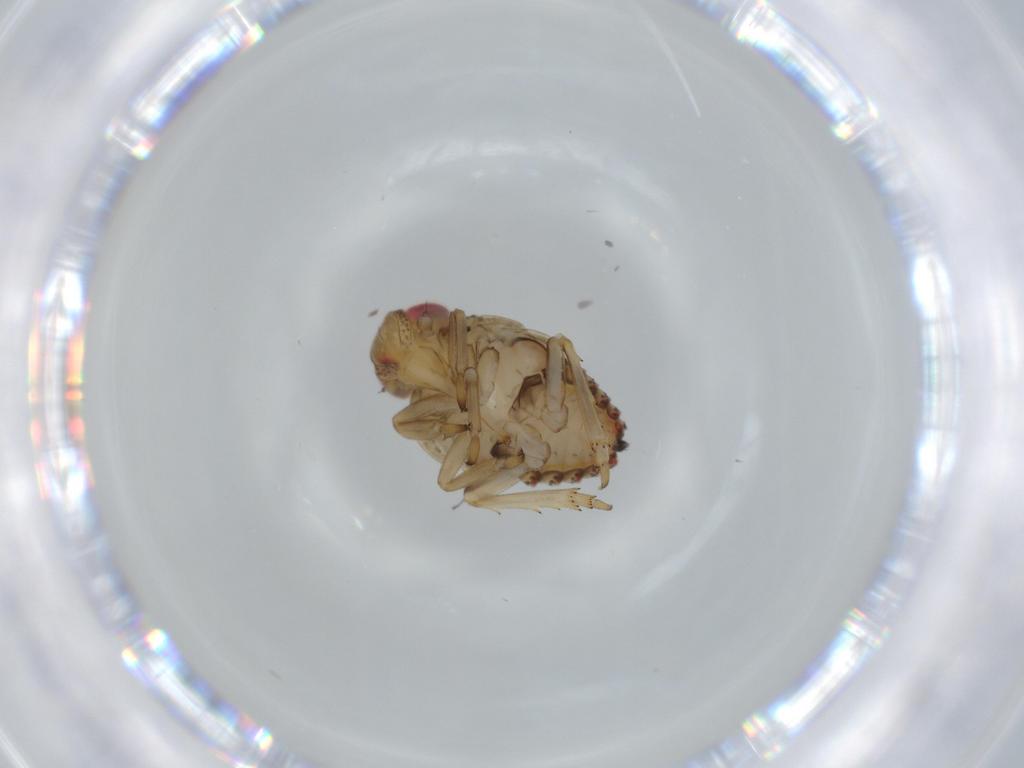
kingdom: Animalia
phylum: Arthropoda
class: Insecta
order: Hemiptera
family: Issidae
